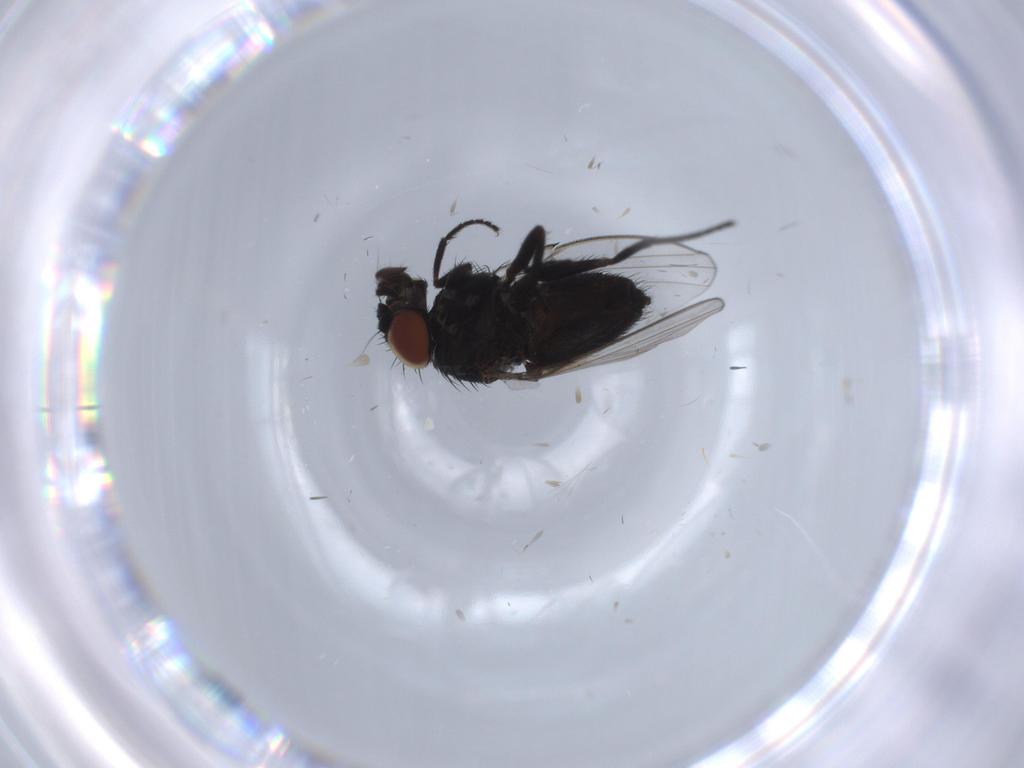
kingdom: Animalia
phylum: Arthropoda
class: Insecta
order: Diptera
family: Milichiidae
